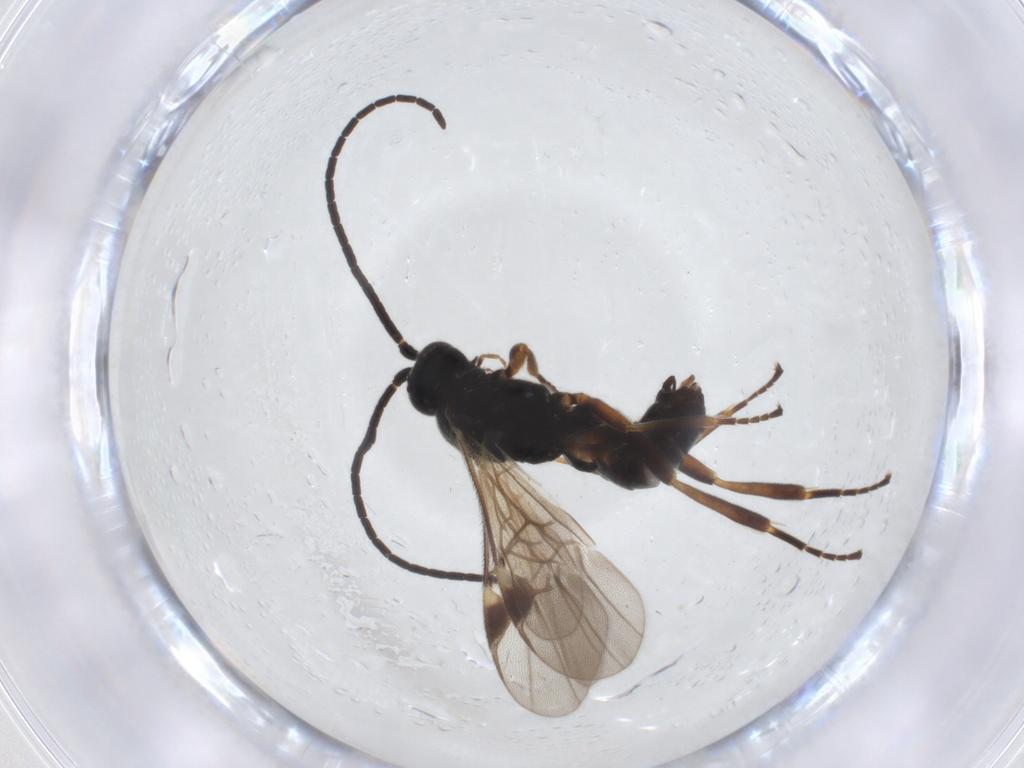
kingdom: Animalia
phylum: Arthropoda
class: Insecta
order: Hymenoptera
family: Braconidae
